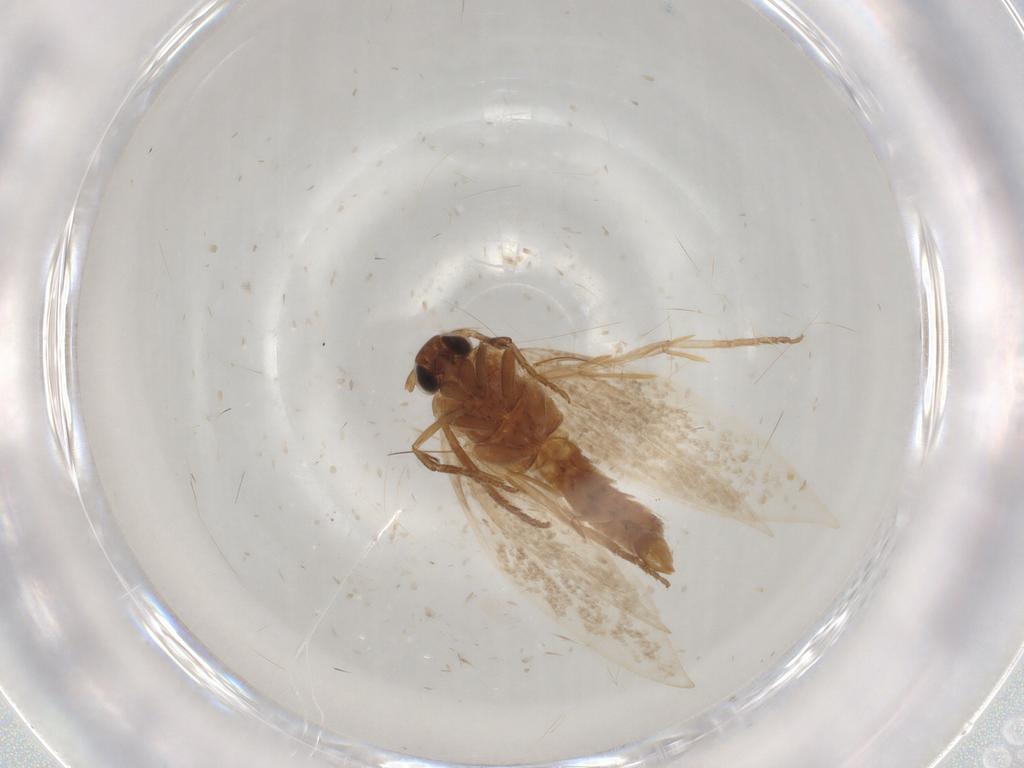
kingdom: Animalia
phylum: Arthropoda
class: Insecta
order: Lepidoptera
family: Elachistidae
